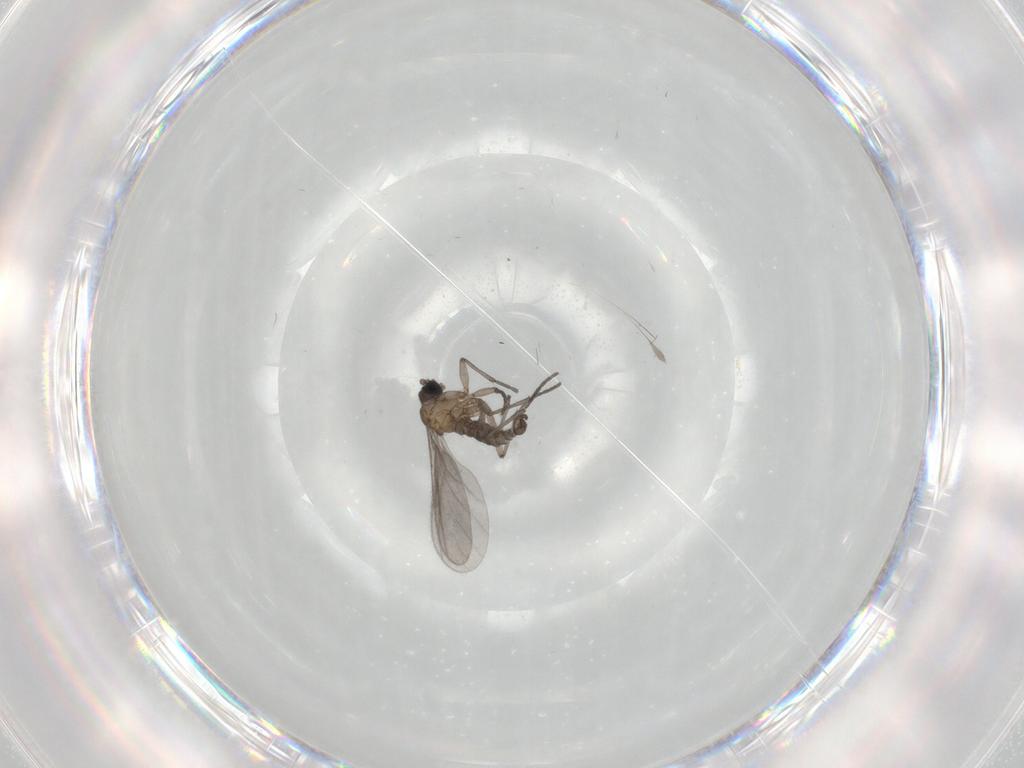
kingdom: Animalia
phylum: Arthropoda
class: Insecta
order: Diptera
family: Sciaridae
